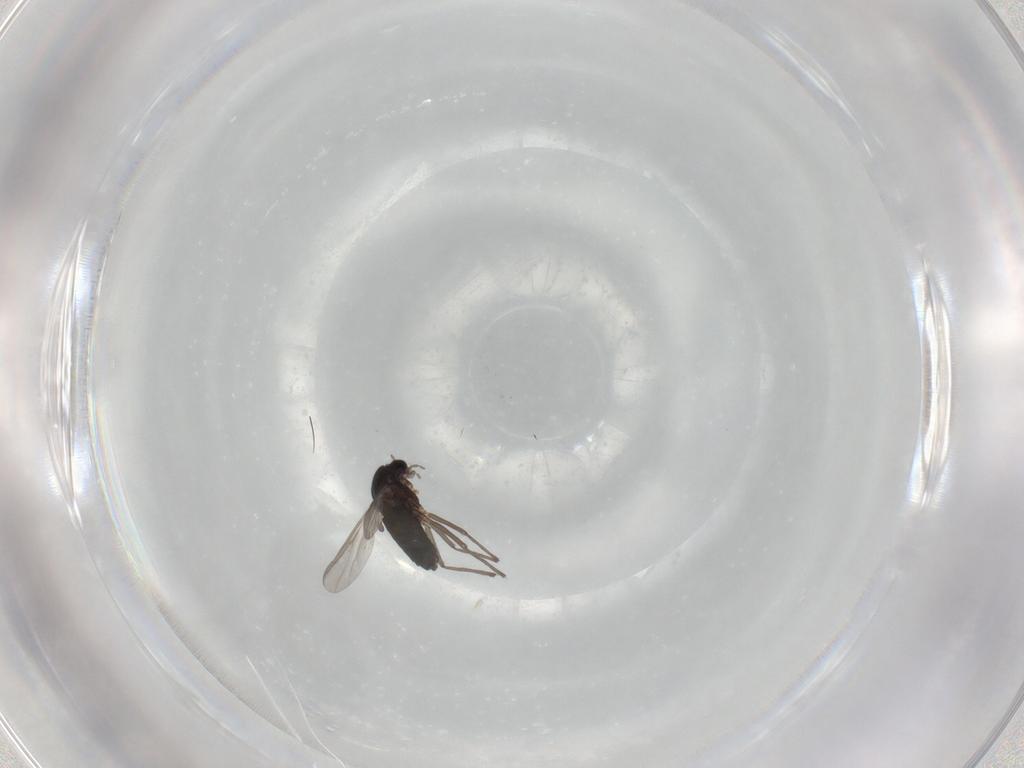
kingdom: Animalia
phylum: Arthropoda
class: Insecta
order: Diptera
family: Chironomidae
